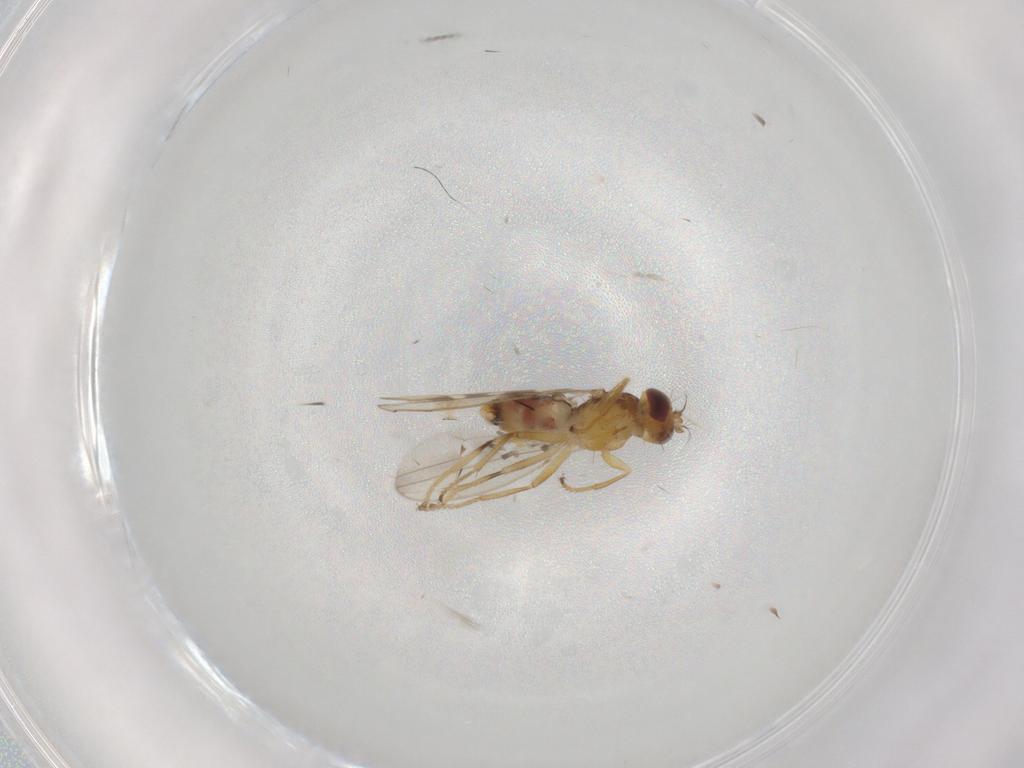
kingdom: Animalia
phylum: Arthropoda
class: Insecta
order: Diptera
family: Periscelididae
